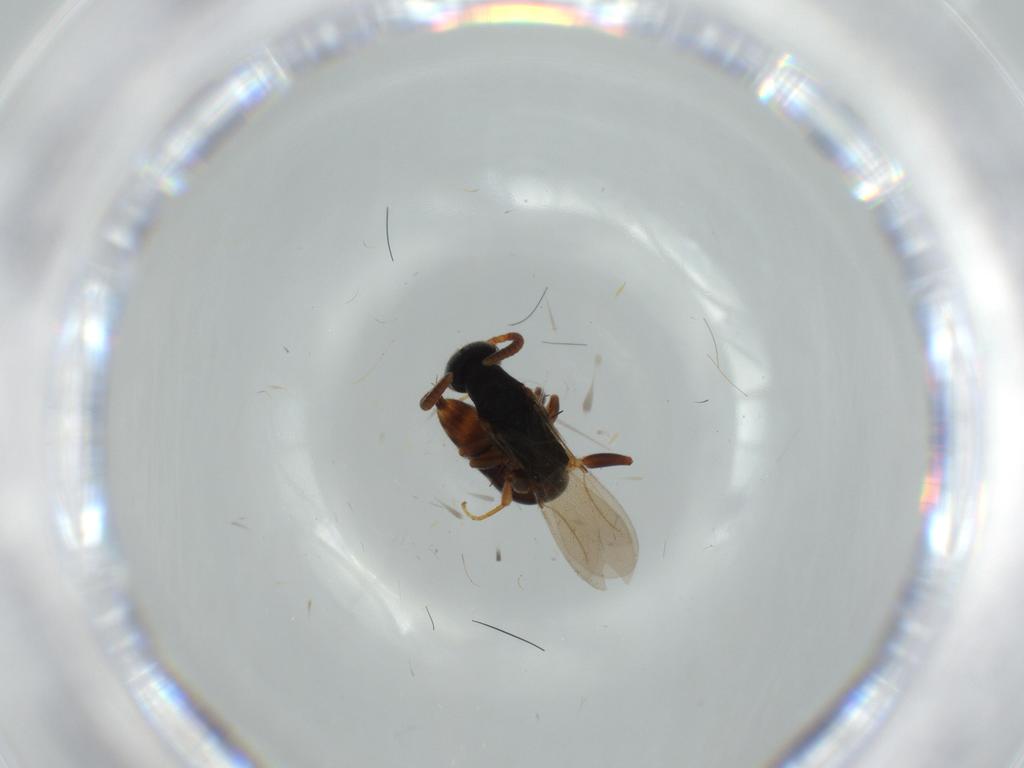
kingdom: Animalia
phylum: Arthropoda
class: Insecta
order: Hymenoptera
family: Bethylidae
